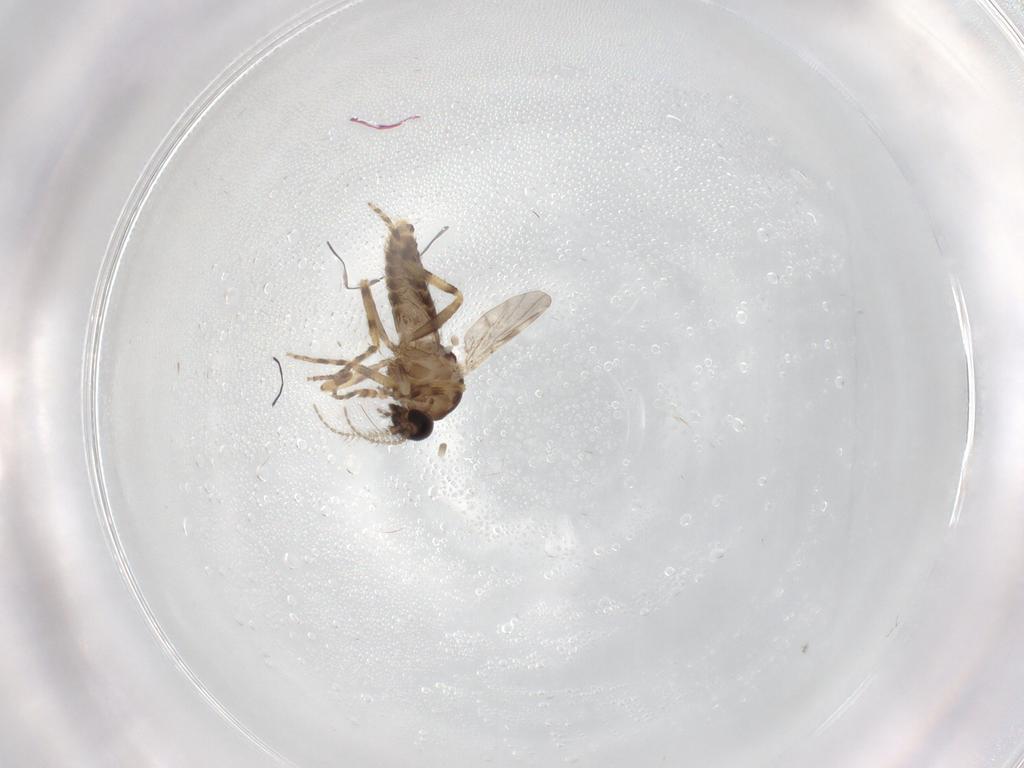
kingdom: Animalia
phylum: Arthropoda
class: Insecta
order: Diptera
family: Ceratopogonidae
